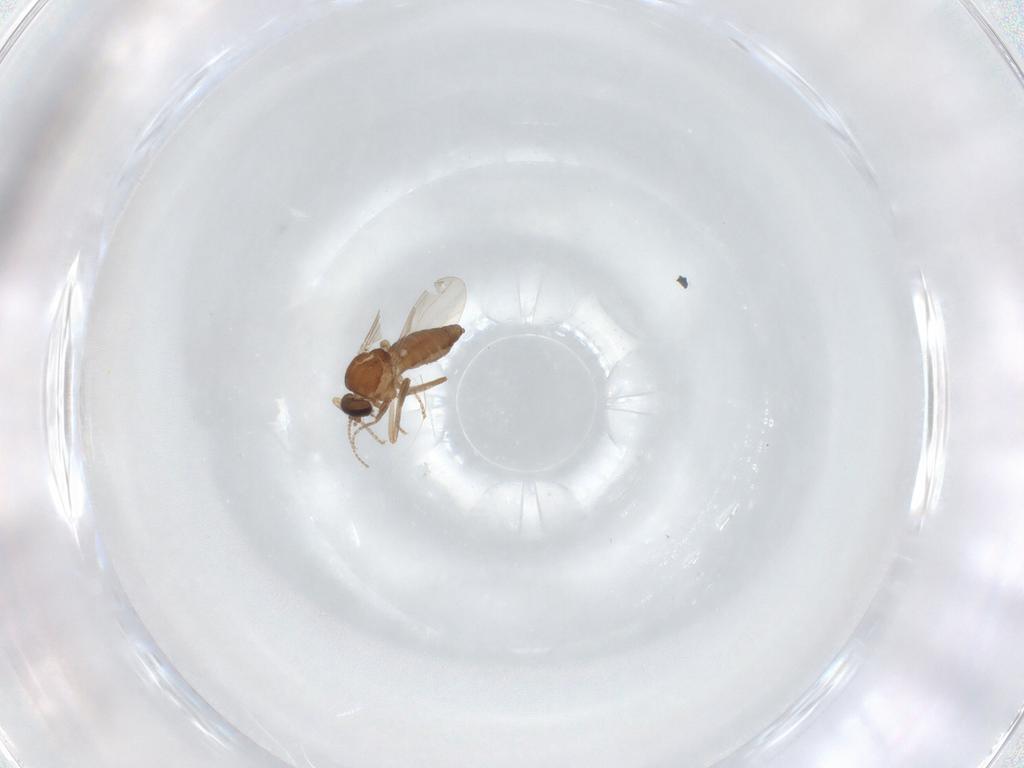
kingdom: Animalia
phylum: Arthropoda
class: Insecta
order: Diptera
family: Ceratopogonidae
